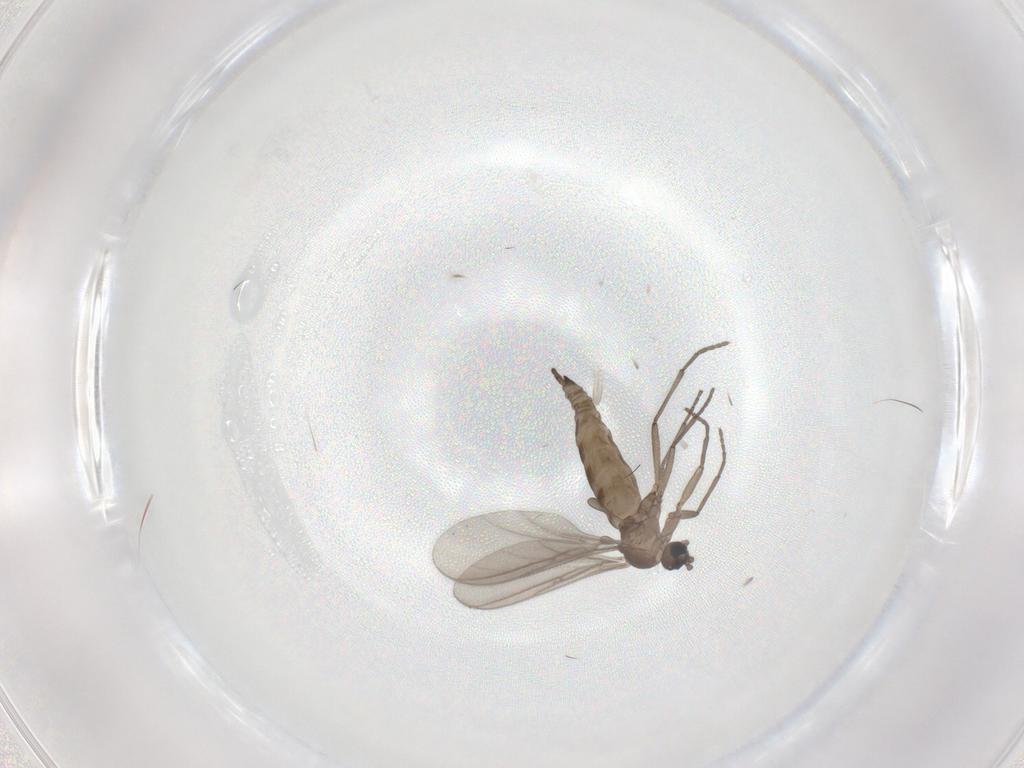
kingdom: Animalia
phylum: Arthropoda
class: Insecta
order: Diptera
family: Sciaridae
